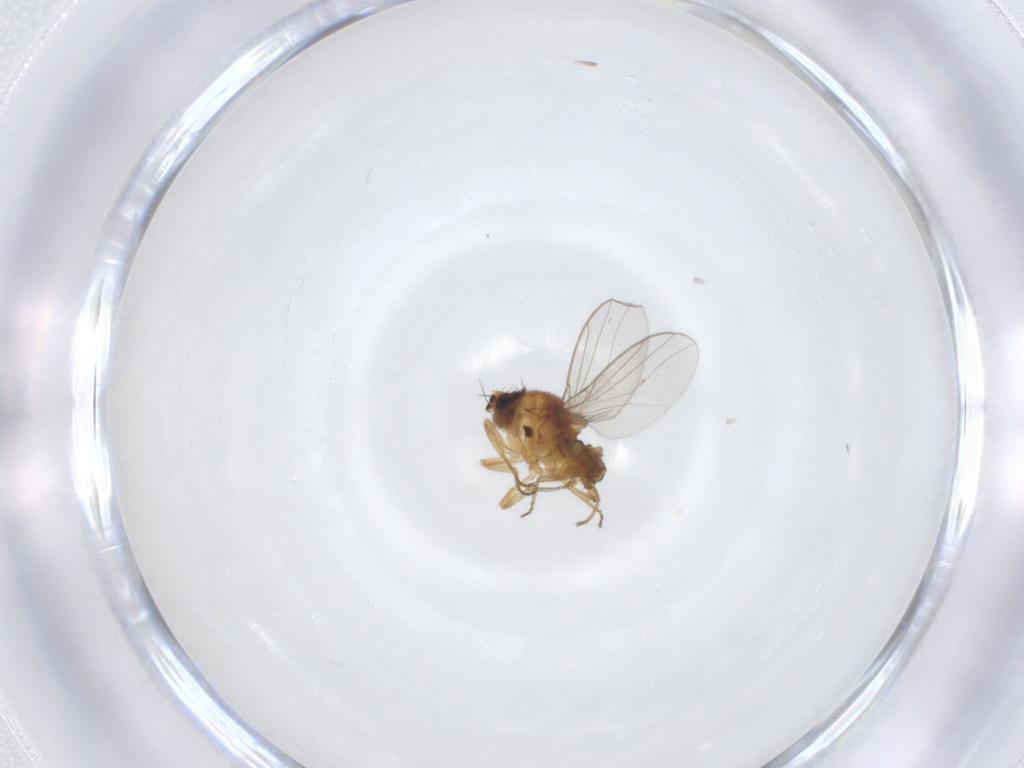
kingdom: Animalia
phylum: Arthropoda
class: Insecta
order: Diptera
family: Chloropidae
